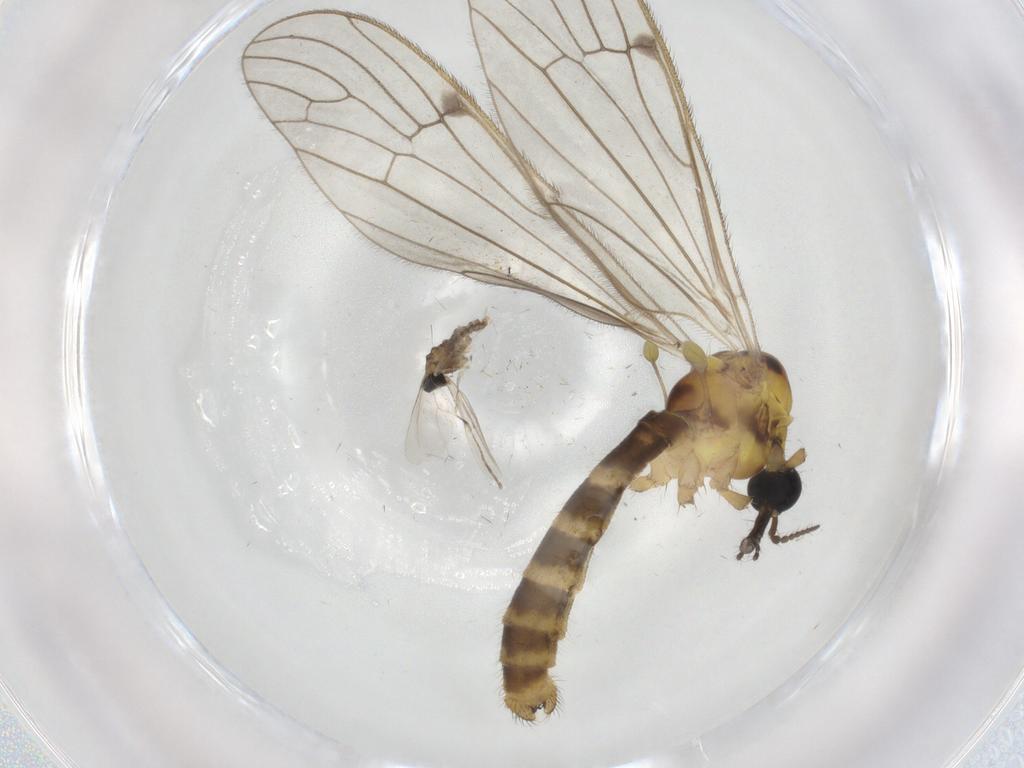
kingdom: Animalia
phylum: Arthropoda
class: Insecta
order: Diptera
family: Limoniidae
